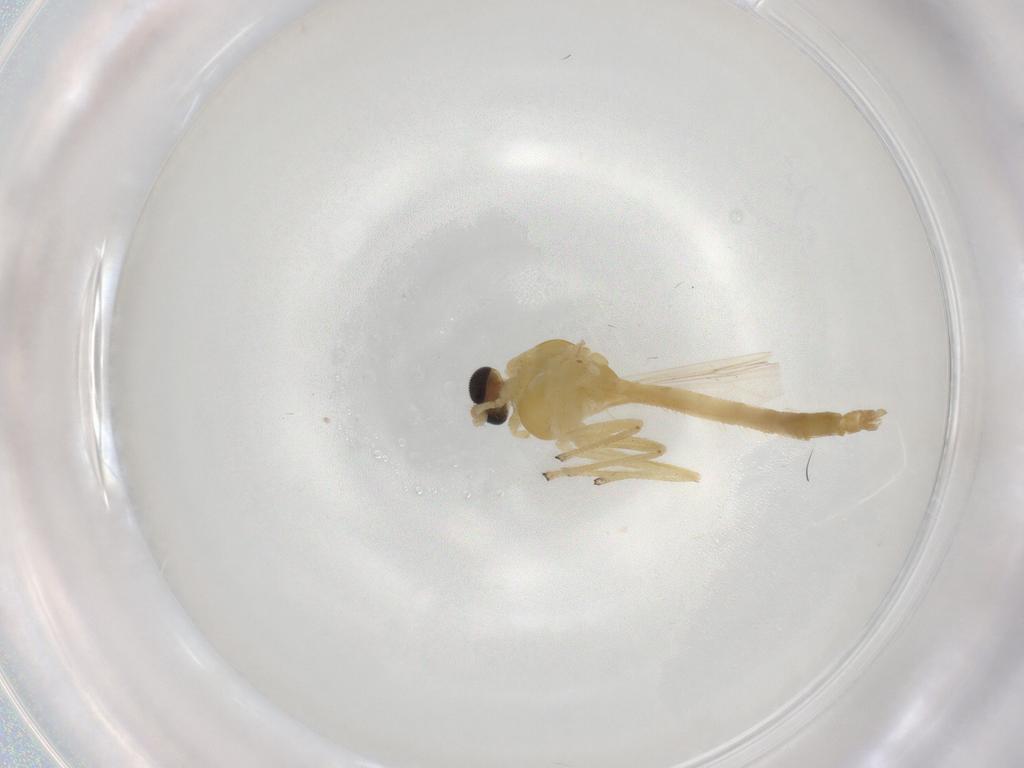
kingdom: Animalia
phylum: Arthropoda
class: Insecta
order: Diptera
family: Chironomidae
